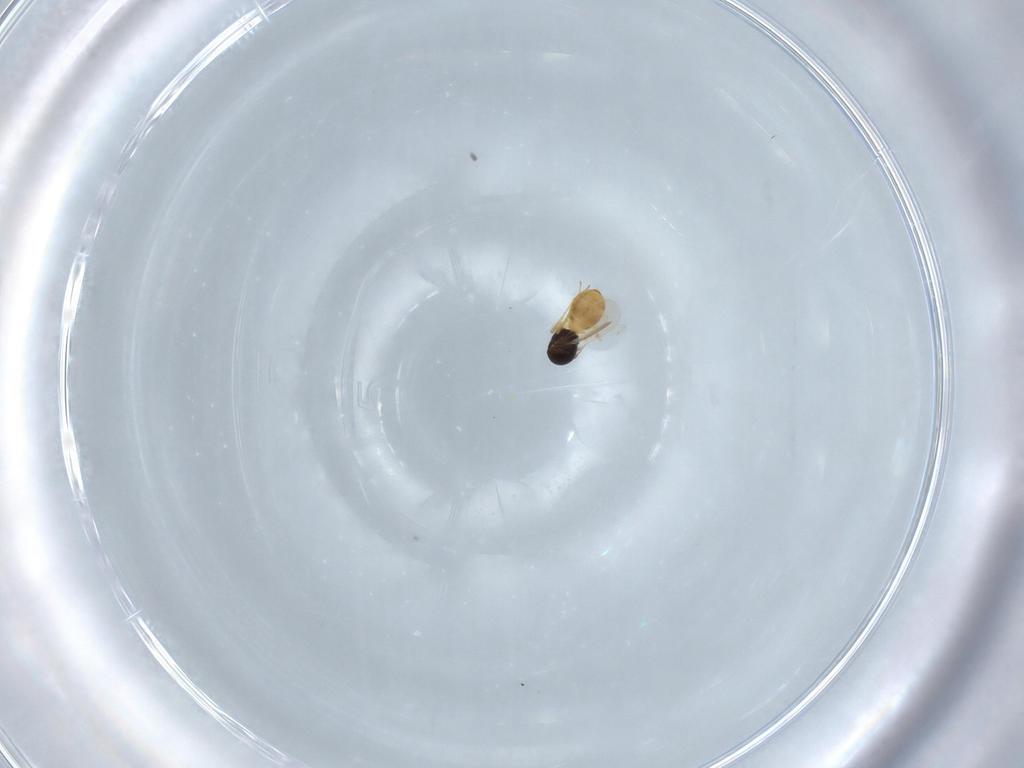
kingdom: Animalia
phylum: Arthropoda
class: Insecta
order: Hymenoptera
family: Scelionidae
